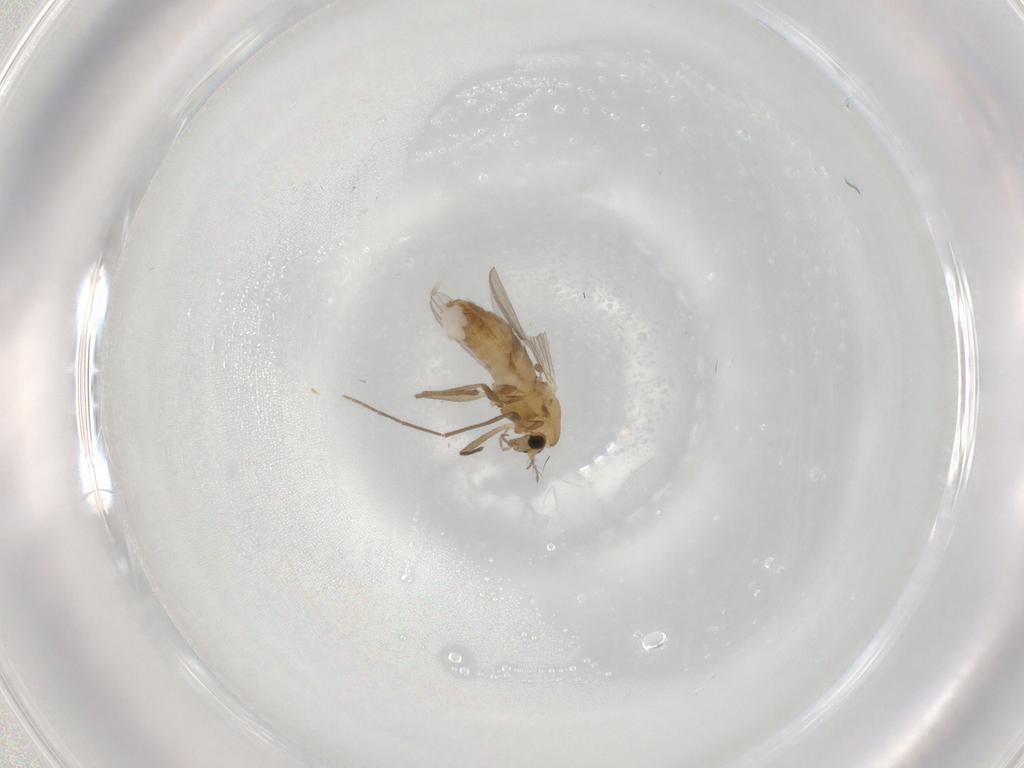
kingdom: Animalia
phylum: Arthropoda
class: Insecta
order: Diptera
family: Chironomidae
